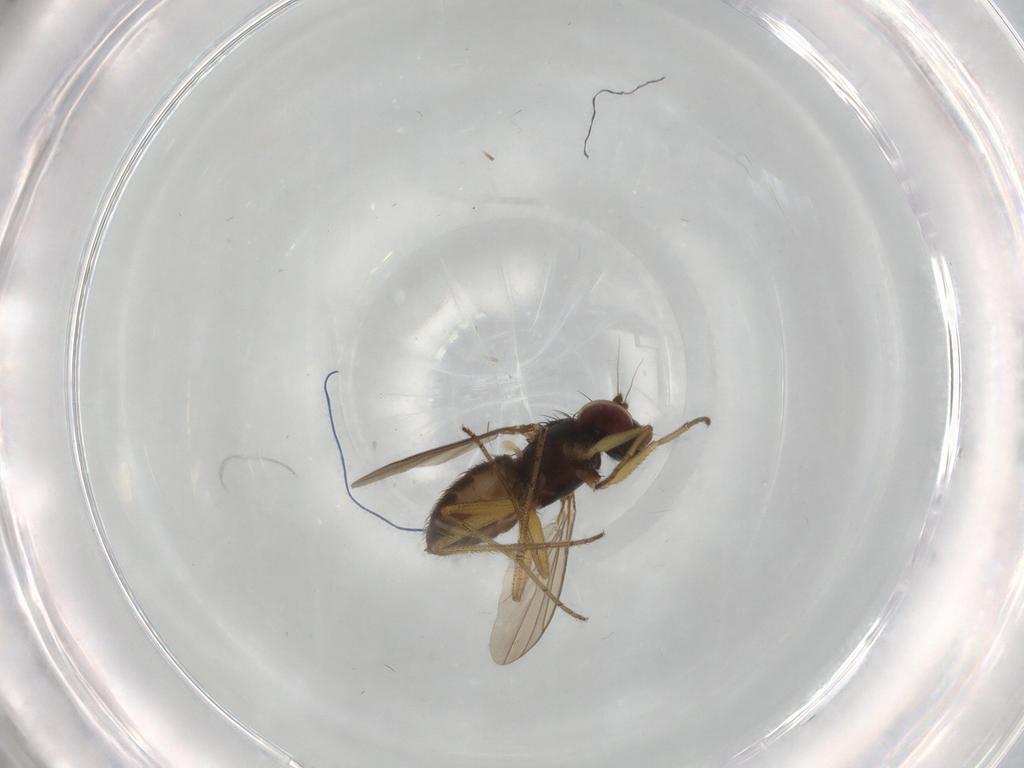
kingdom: Animalia
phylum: Arthropoda
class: Insecta
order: Diptera
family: Dolichopodidae
